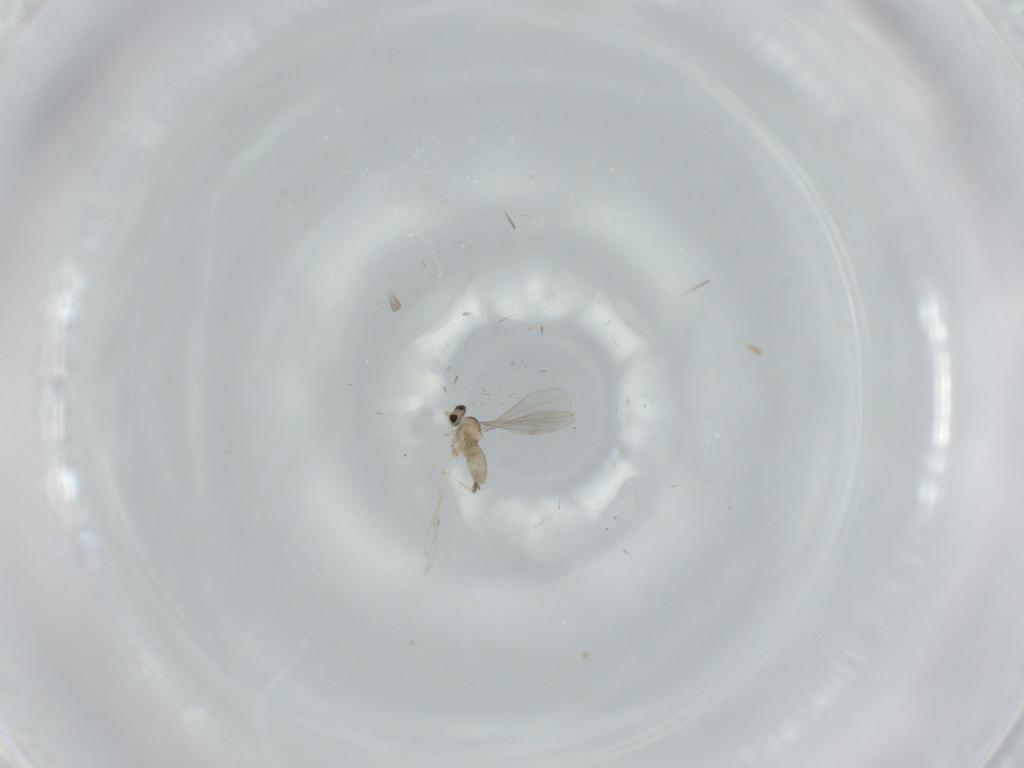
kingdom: Animalia
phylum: Arthropoda
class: Insecta
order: Diptera
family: Cecidomyiidae
